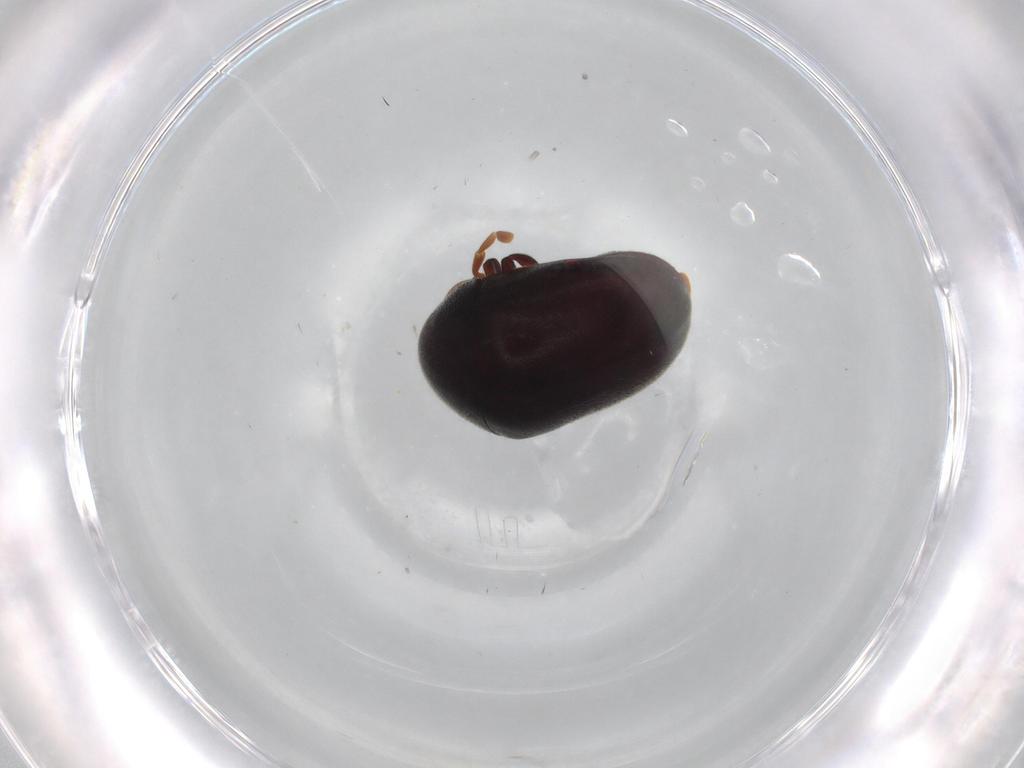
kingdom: Animalia
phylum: Arthropoda
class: Insecta
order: Coleoptera
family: Ptinidae
